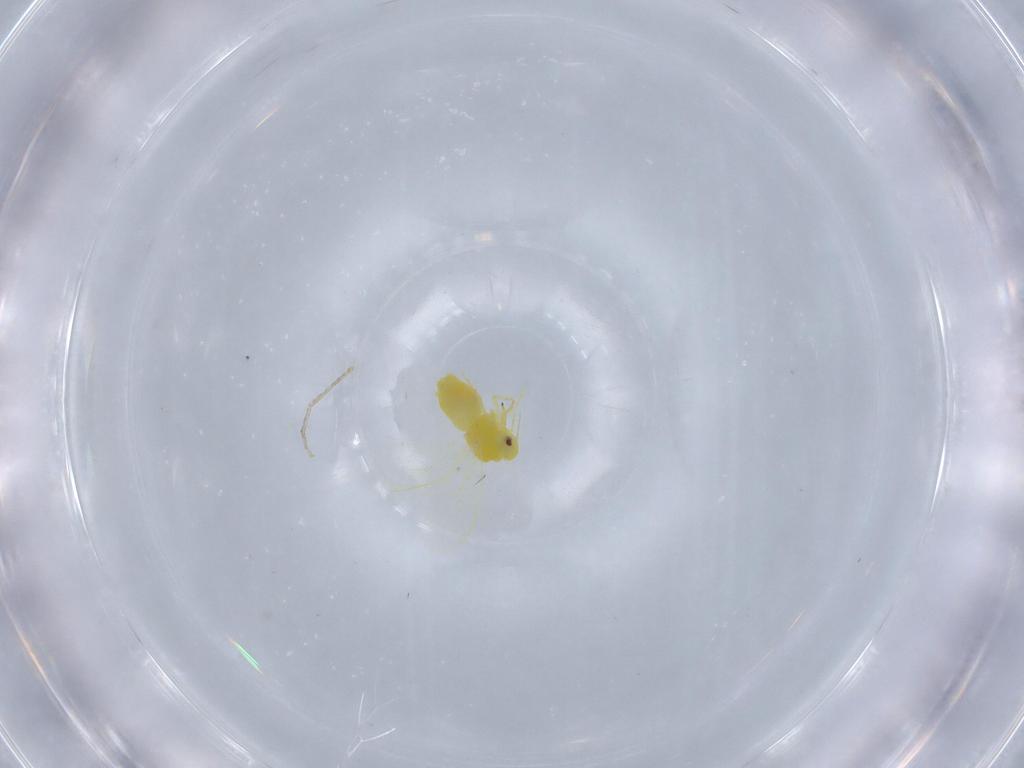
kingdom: Animalia
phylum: Arthropoda
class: Insecta
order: Hemiptera
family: Aleyrodidae
